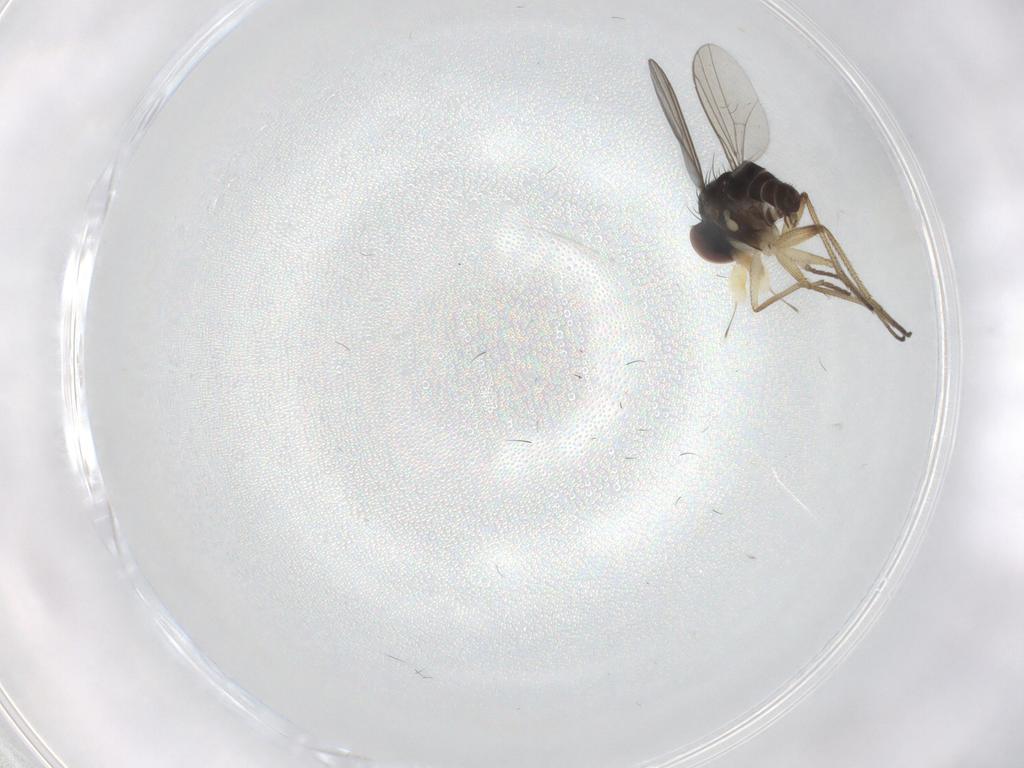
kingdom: Animalia
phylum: Arthropoda
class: Insecta
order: Diptera
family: Dolichopodidae
